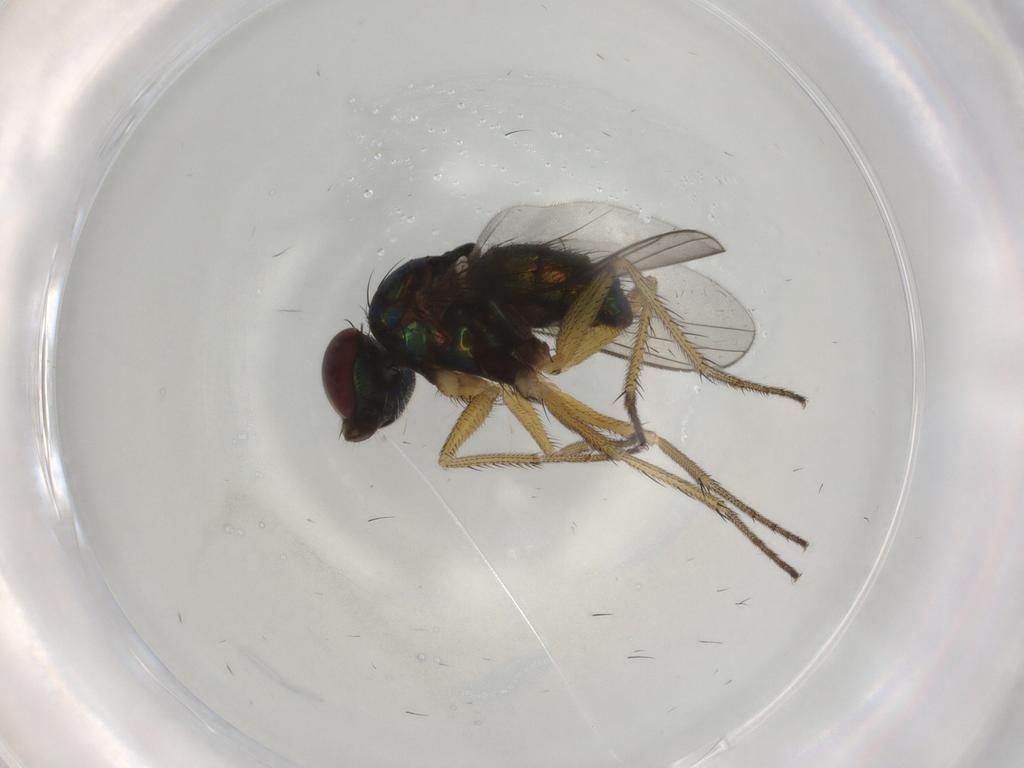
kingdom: Animalia
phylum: Arthropoda
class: Insecta
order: Diptera
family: Dolichopodidae
